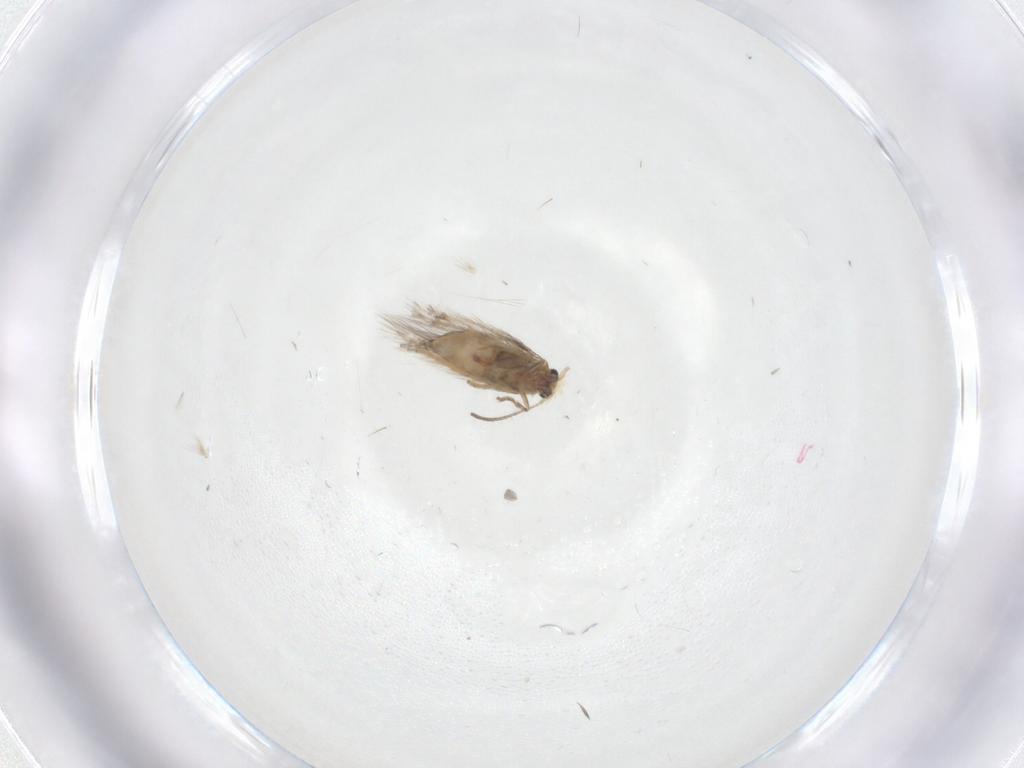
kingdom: Animalia
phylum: Arthropoda
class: Insecta
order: Lepidoptera
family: Nepticulidae
